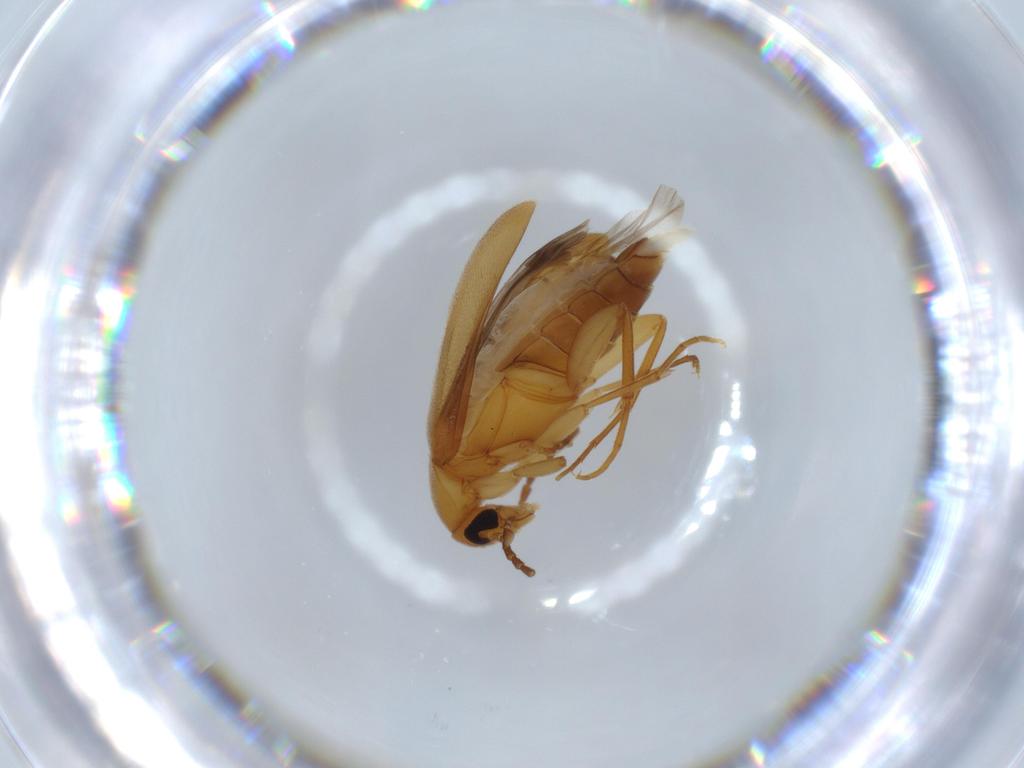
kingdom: Animalia
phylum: Arthropoda
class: Insecta
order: Coleoptera
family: Scraptiidae
